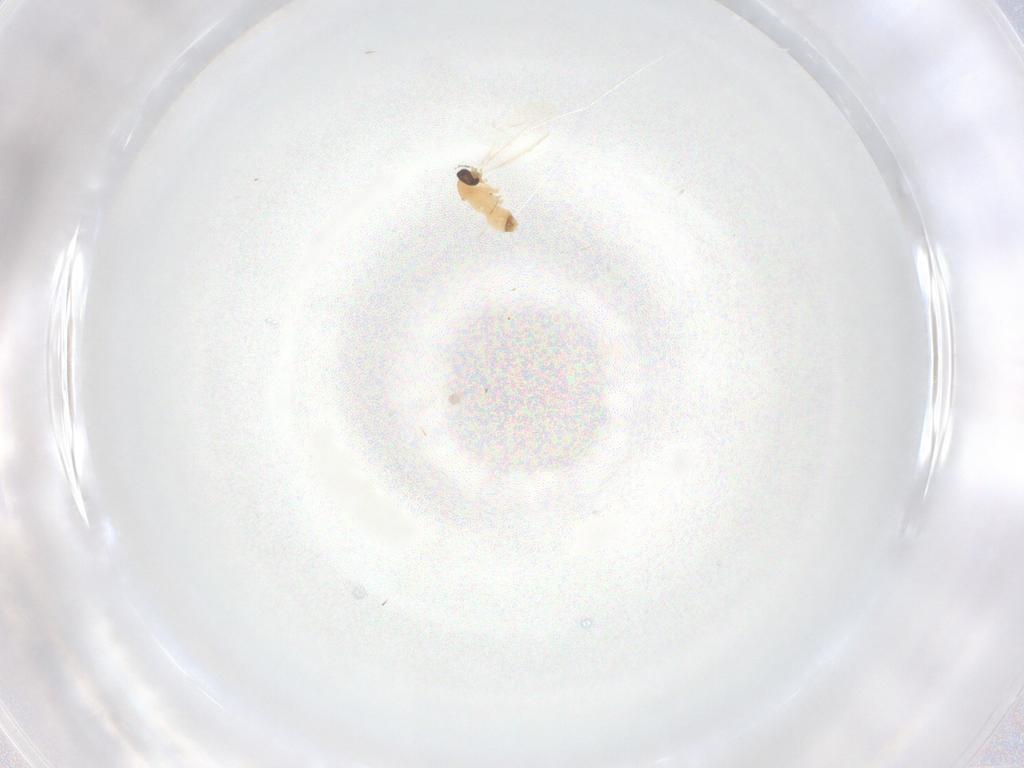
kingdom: Animalia
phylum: Arthropoda
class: Insecta
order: Diptera
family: Cecidomyiidae
